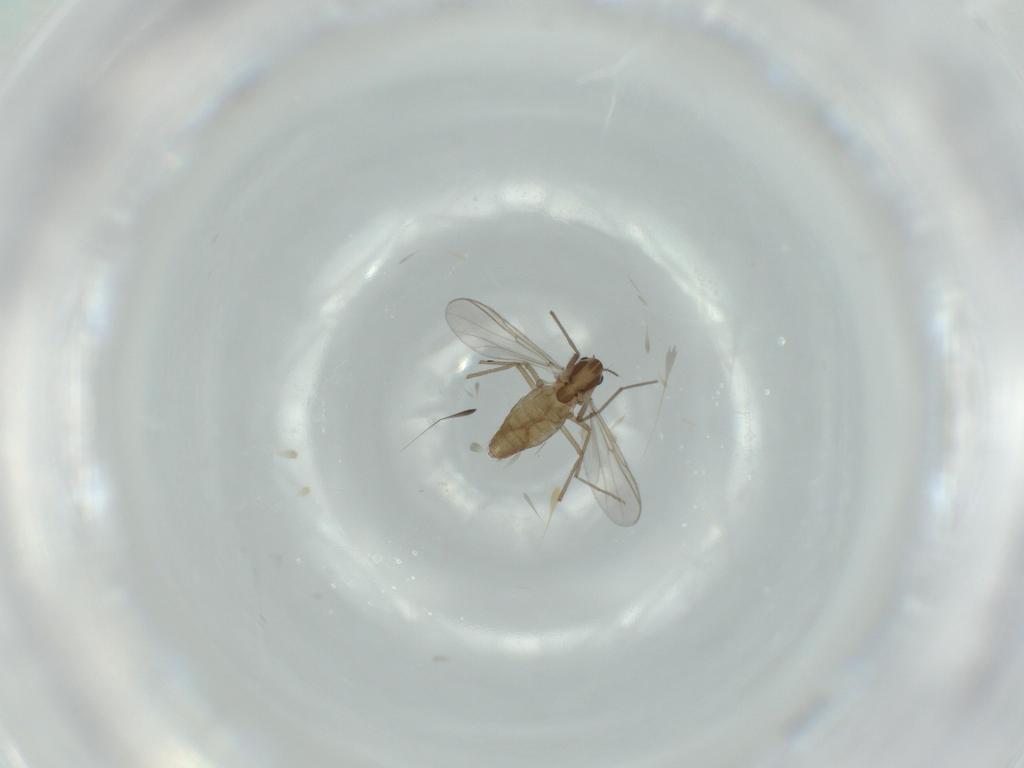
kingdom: Animalia
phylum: Arthropoda
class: Insecta
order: Diptera
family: Chironomidae
